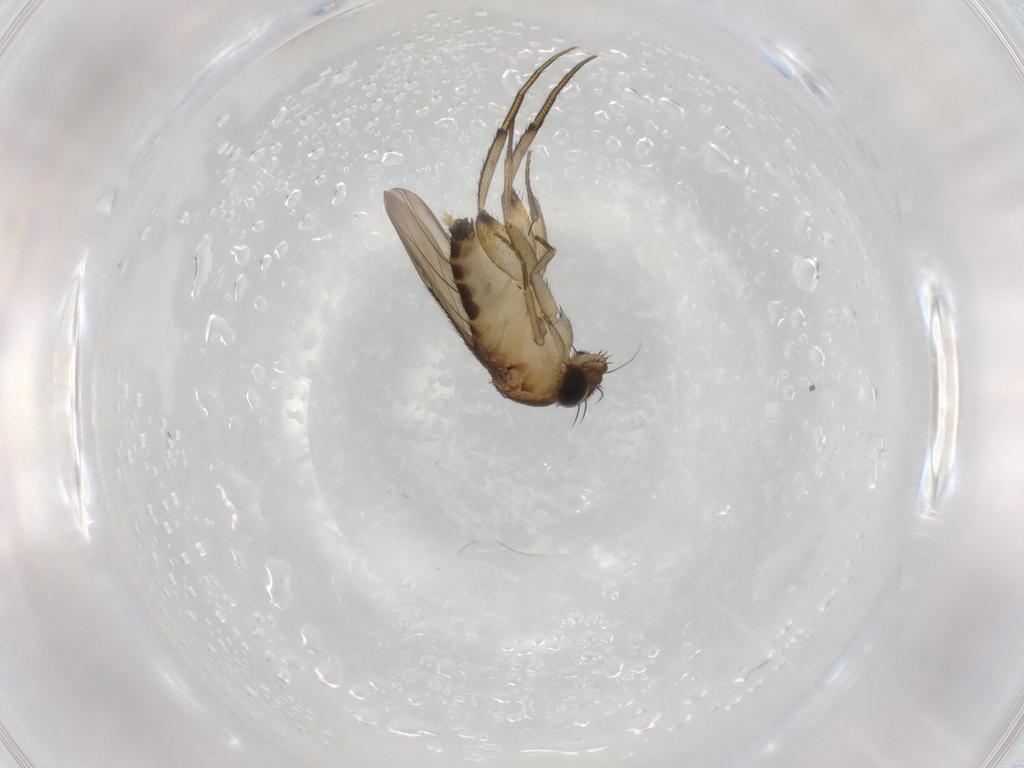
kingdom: Animalia
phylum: Arthropoda
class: Insecta
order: Diptera
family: Phoridae
